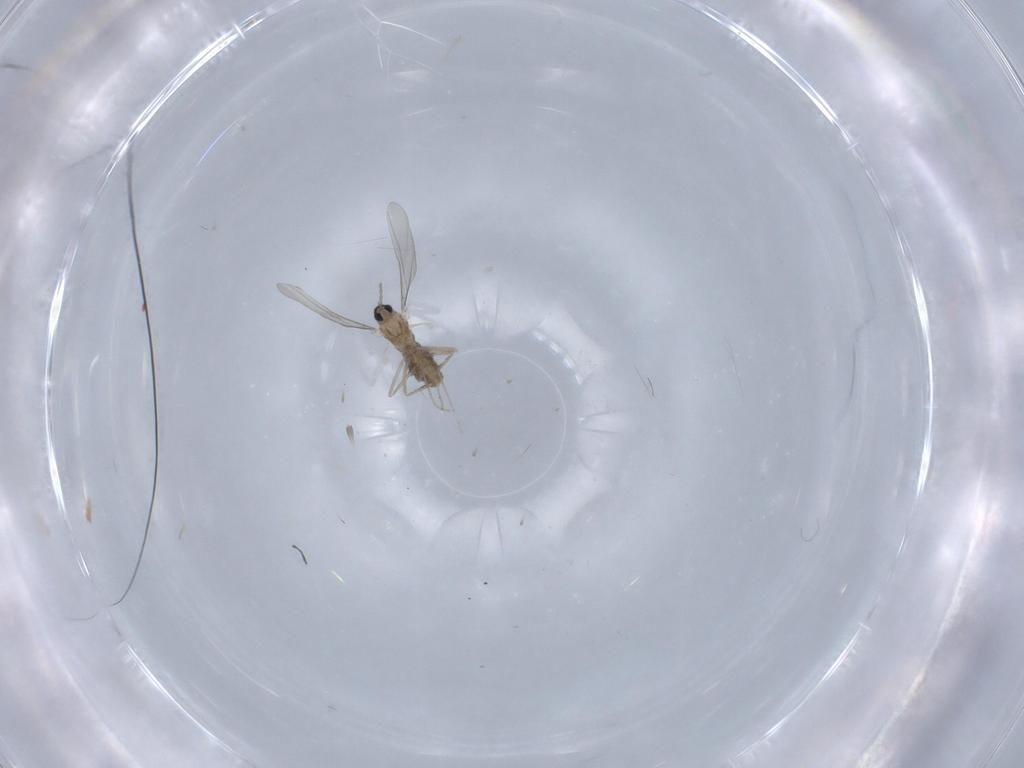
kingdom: Animalia
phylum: Arthropoda
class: Insecta
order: Diptera
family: Cecidomyiidae
